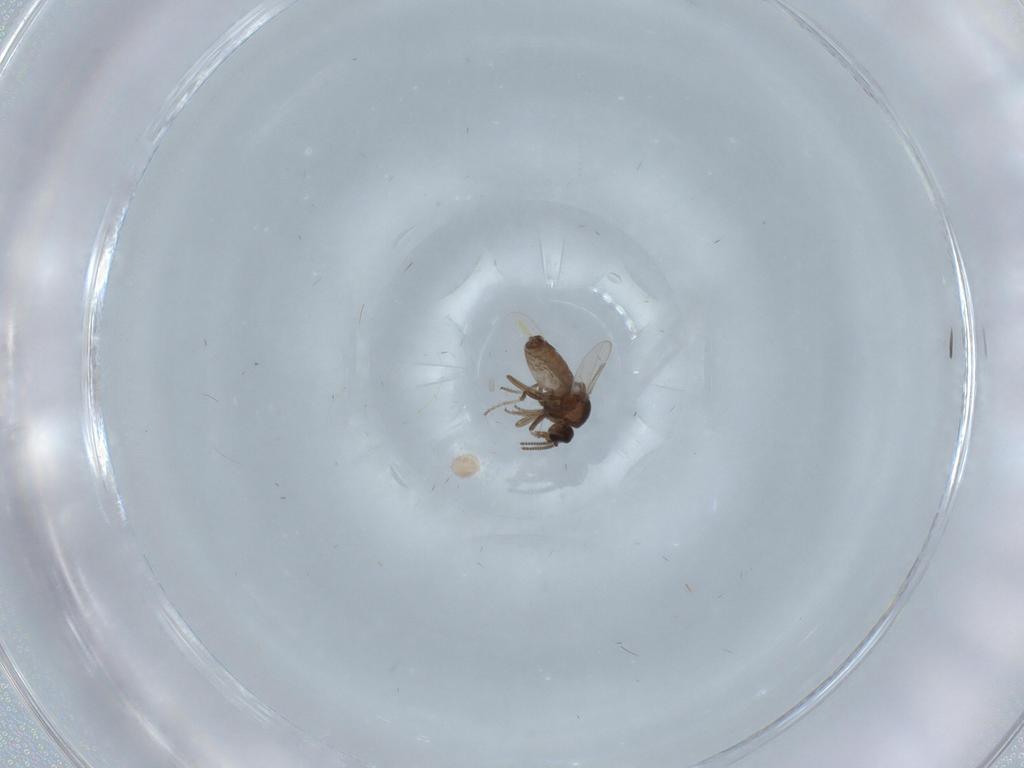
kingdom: Animalia
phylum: Arthropoda
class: Insecta
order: Diptera
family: Ceratopogonidae
